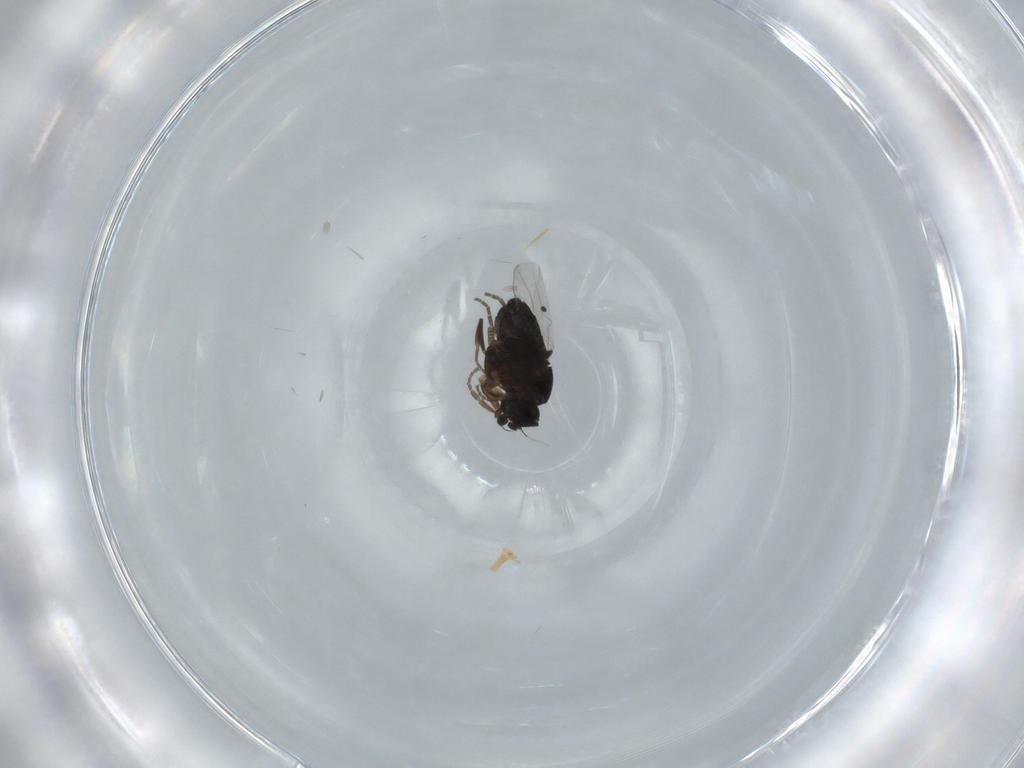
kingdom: Animalia
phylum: Arthropoda
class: Insecta
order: Diptera
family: Phoridae
